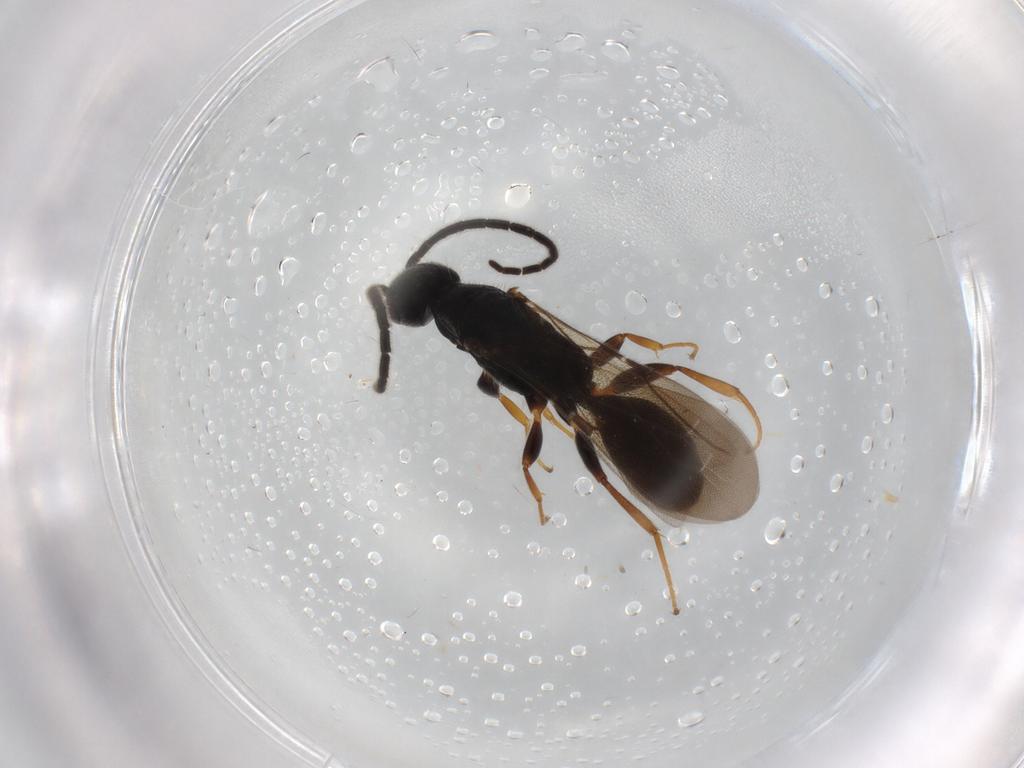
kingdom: Animalia
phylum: Arthropoda
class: Insecta
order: Hymenoptera
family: Bethylidae
